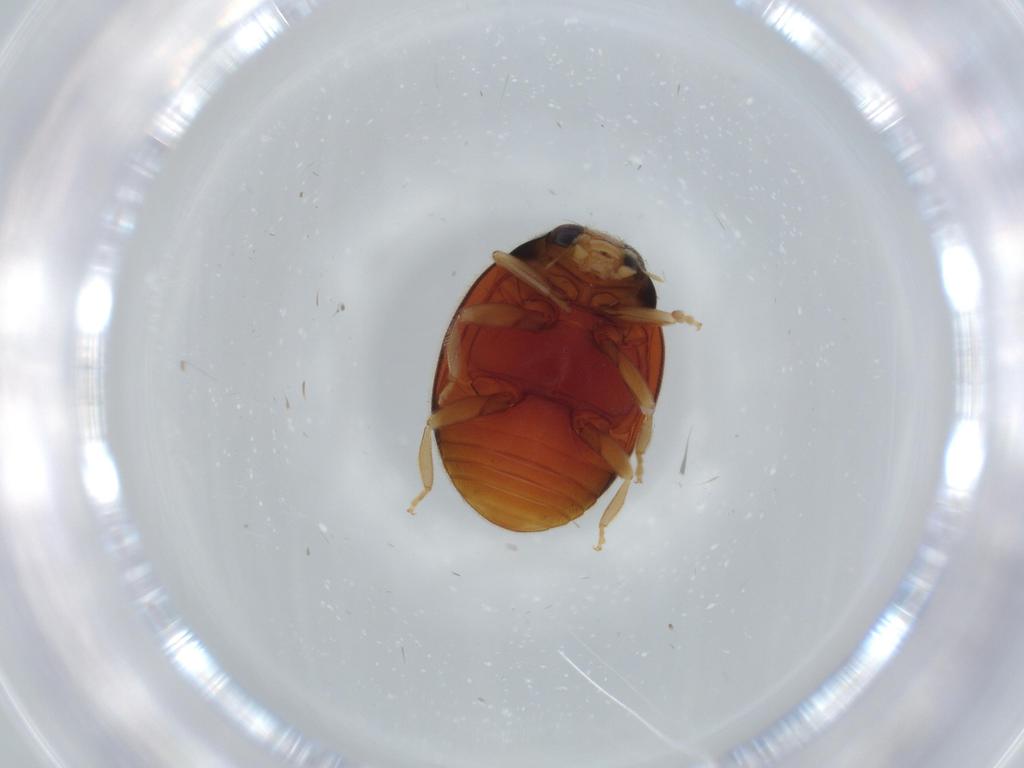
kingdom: Animalia
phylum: Arthropoda
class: Insecta
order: Coleoptera
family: Coccinellidae
